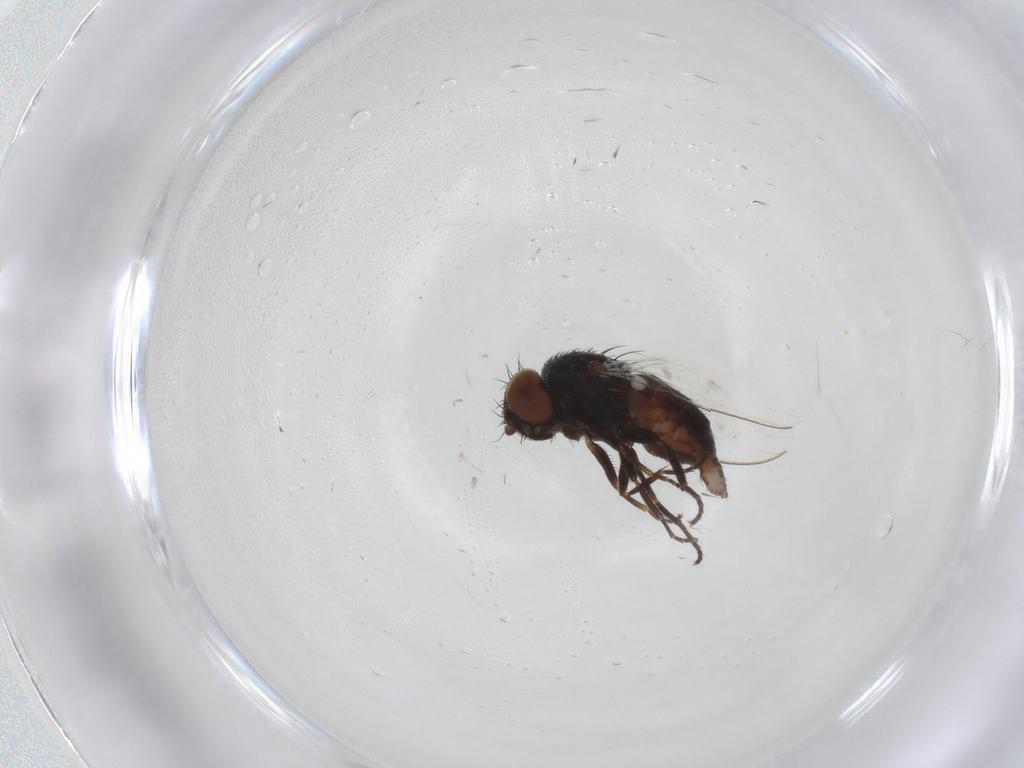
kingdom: Animalia
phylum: Arthropoda
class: Insecta
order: Diptera
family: Milichiidae
